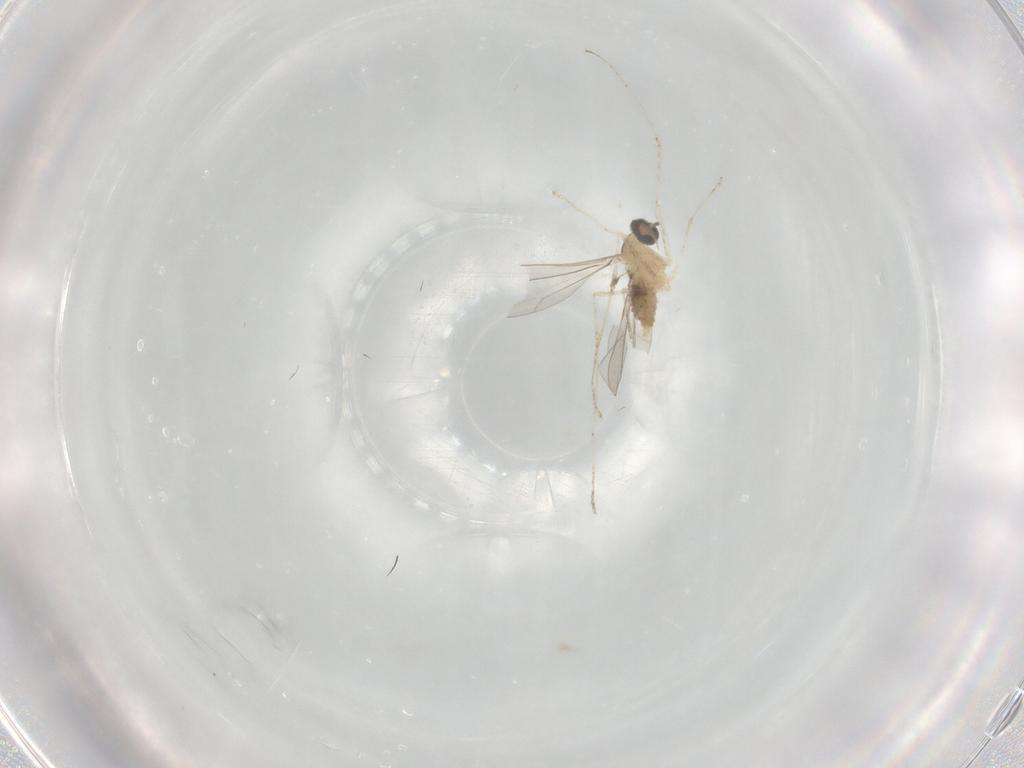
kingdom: Animalia
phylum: Arthropoda
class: Insecta
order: Diptera
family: Cecidomyiidae
